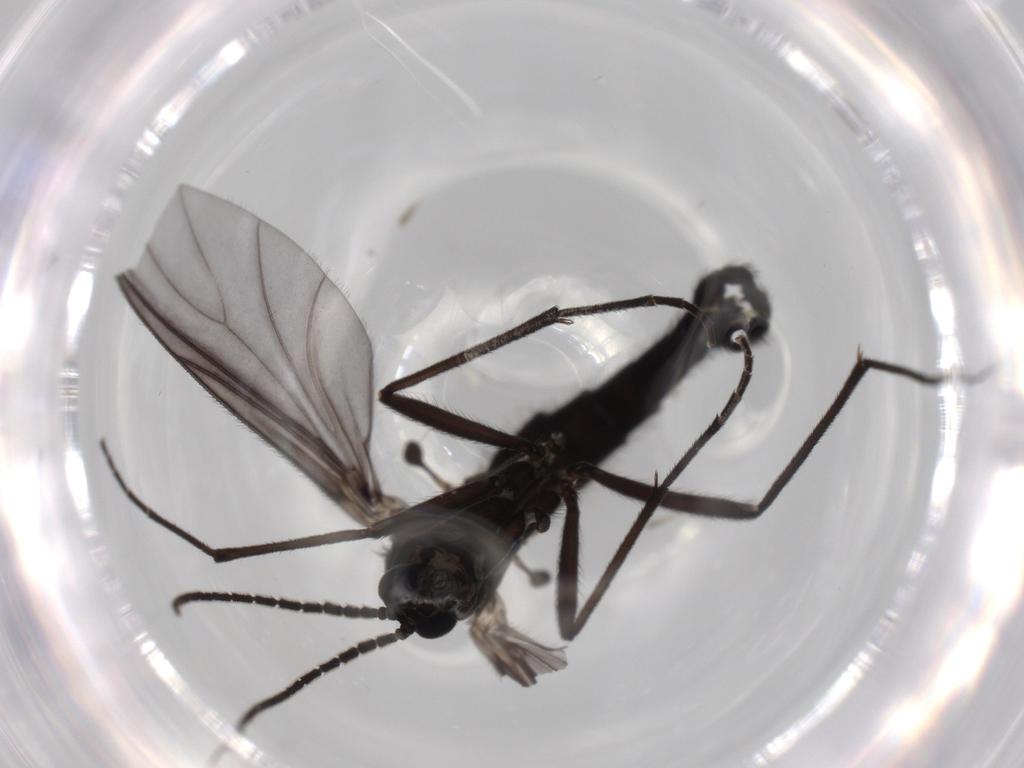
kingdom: Animalia
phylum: Arthropoda
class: Insecta
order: Diptera
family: Sciaridae
